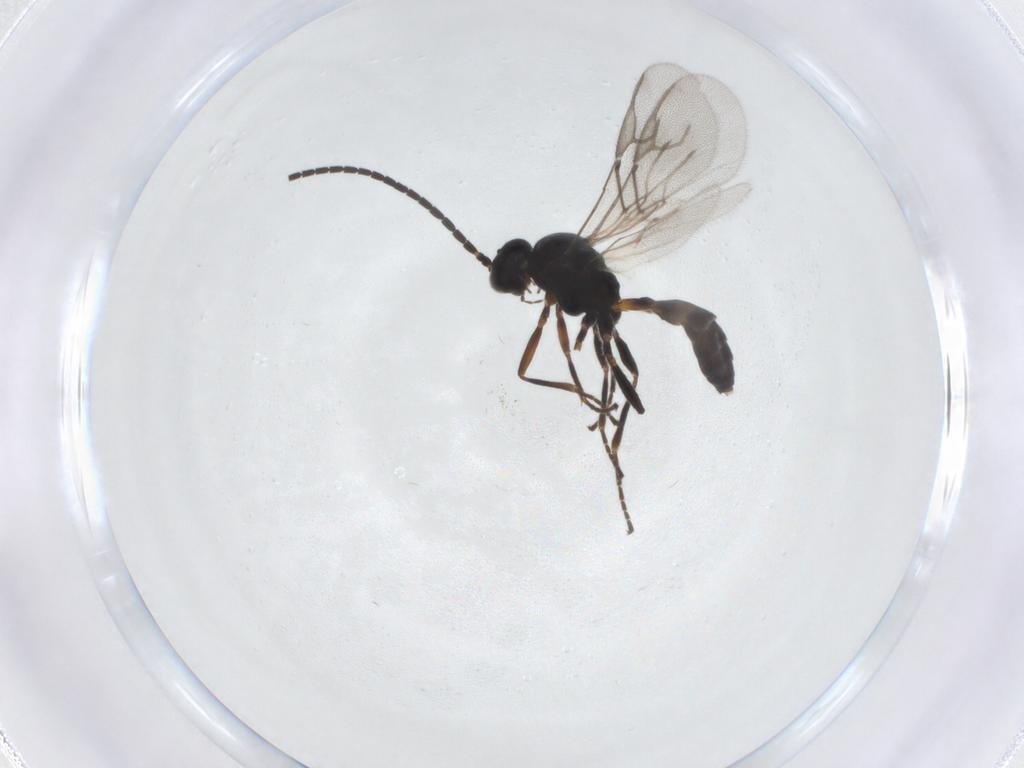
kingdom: Animalia
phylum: Arthropoda
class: Insecta
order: Hymenoptera
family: Braconidae
